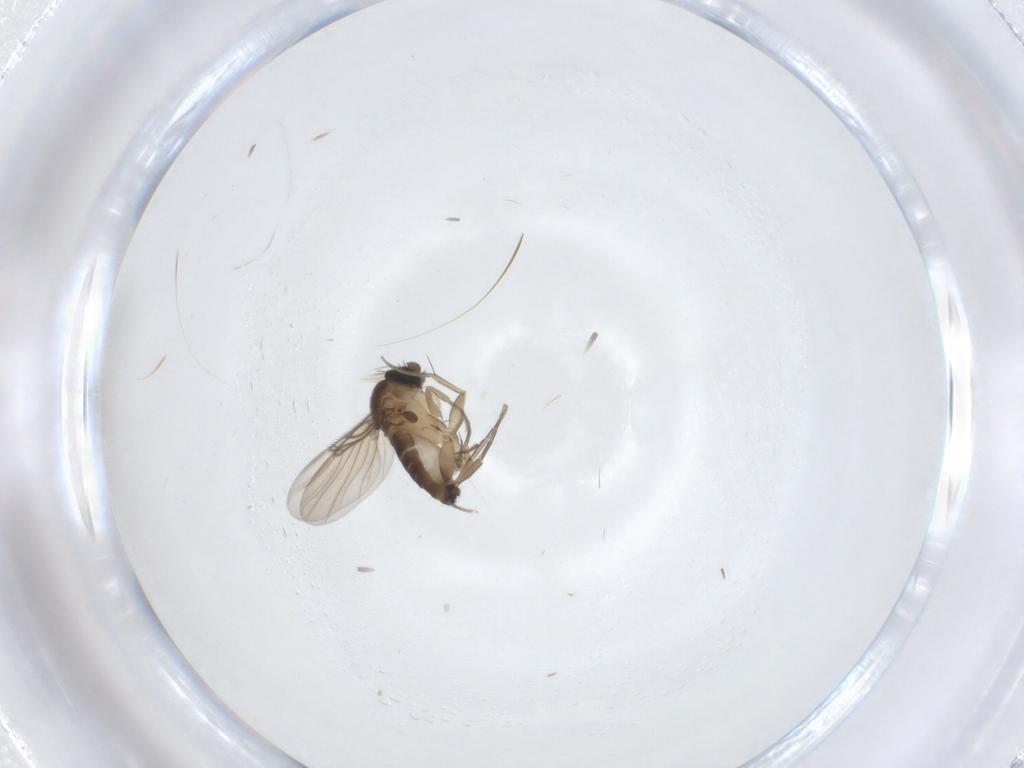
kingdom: Animalia
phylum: Arthropoda
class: Insecta
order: Diptera
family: Sciaridae
